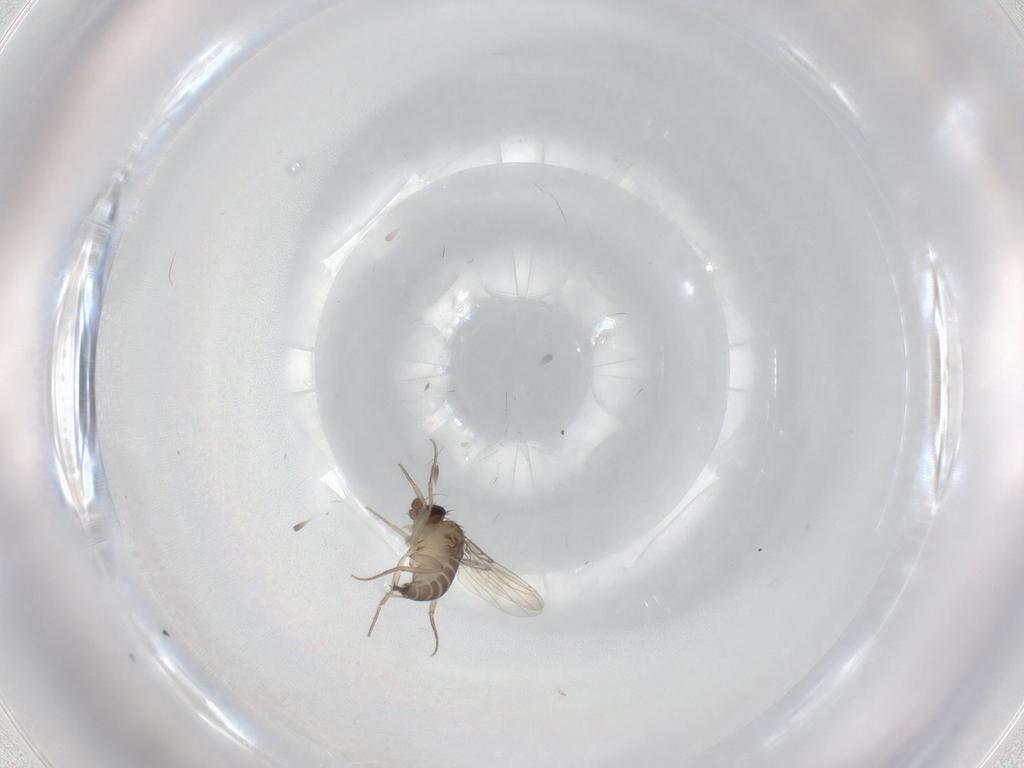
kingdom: Animalia
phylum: Arthropoda
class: Insecta
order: Diptera
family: Phoridae
